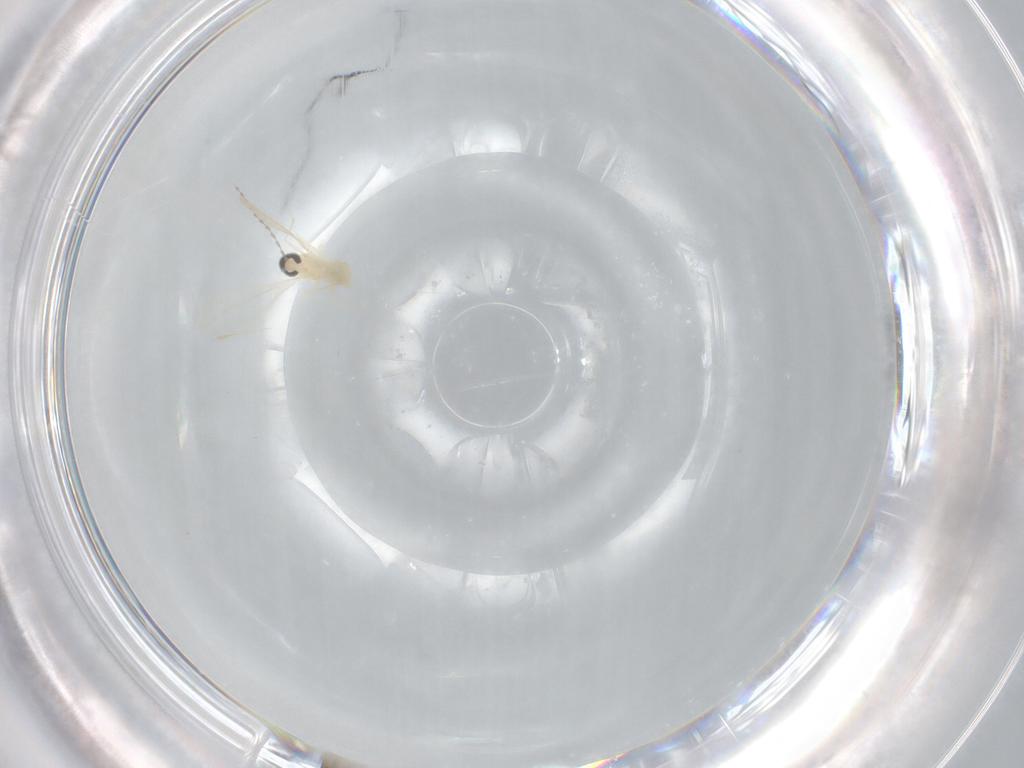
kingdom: Animalia
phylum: Arthropoda
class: Insecta
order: Diptera
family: Cecidomyiidae
